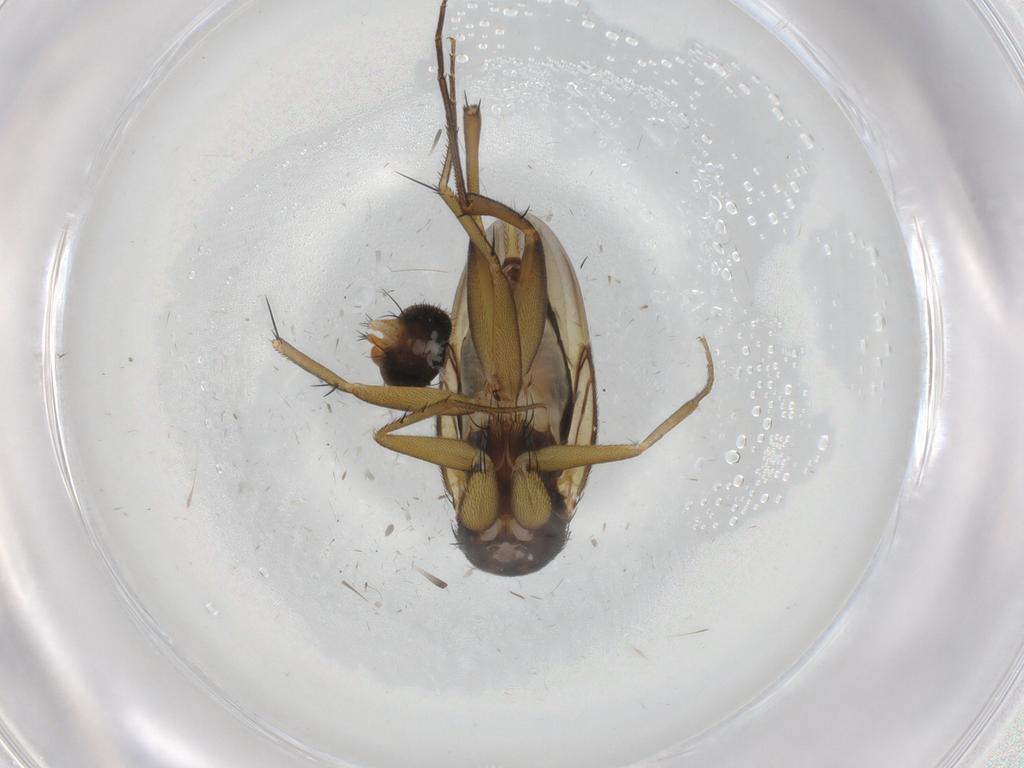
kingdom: Animalia
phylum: Arthropoda
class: Insecta
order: Diptera
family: Phoridae
